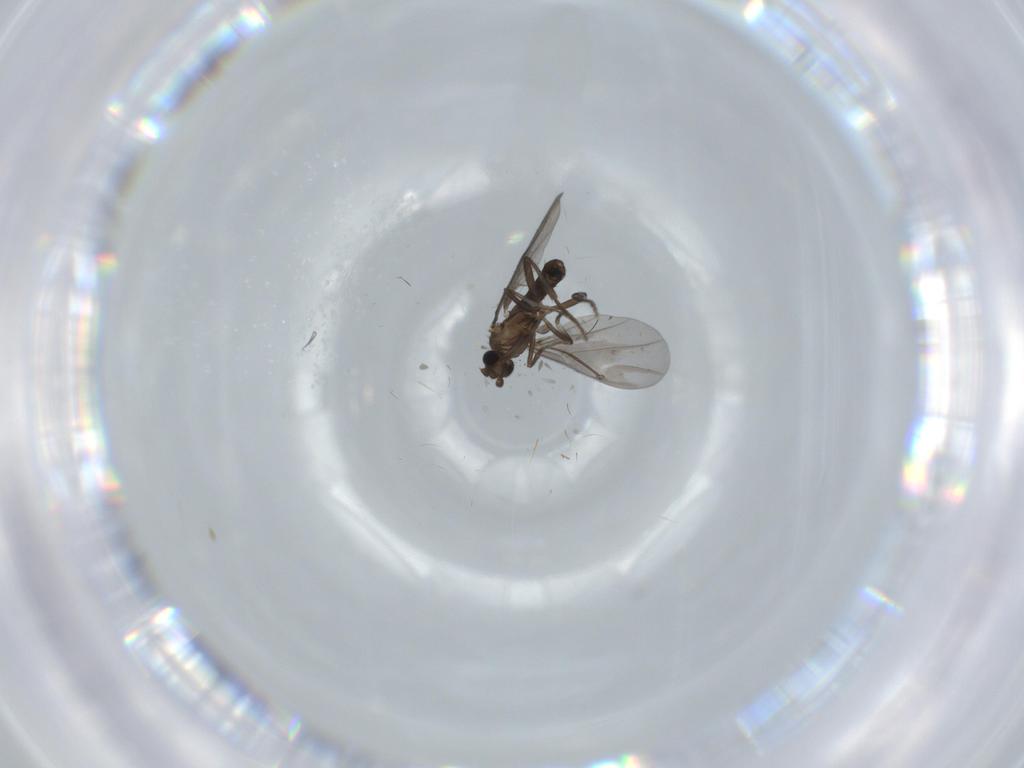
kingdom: Animalia
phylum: Arthropoda
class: Insecta
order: Diptera
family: Phoridae
